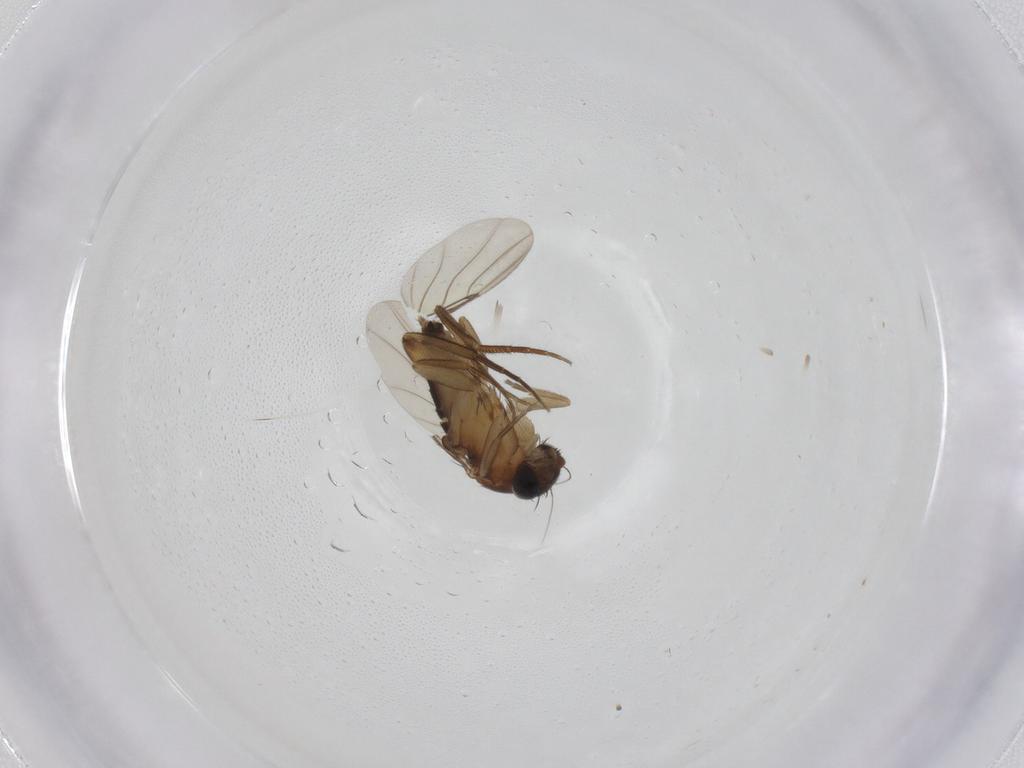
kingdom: Animalia
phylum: Arthropoda
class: Insecta
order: Diptera
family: Phoridae
